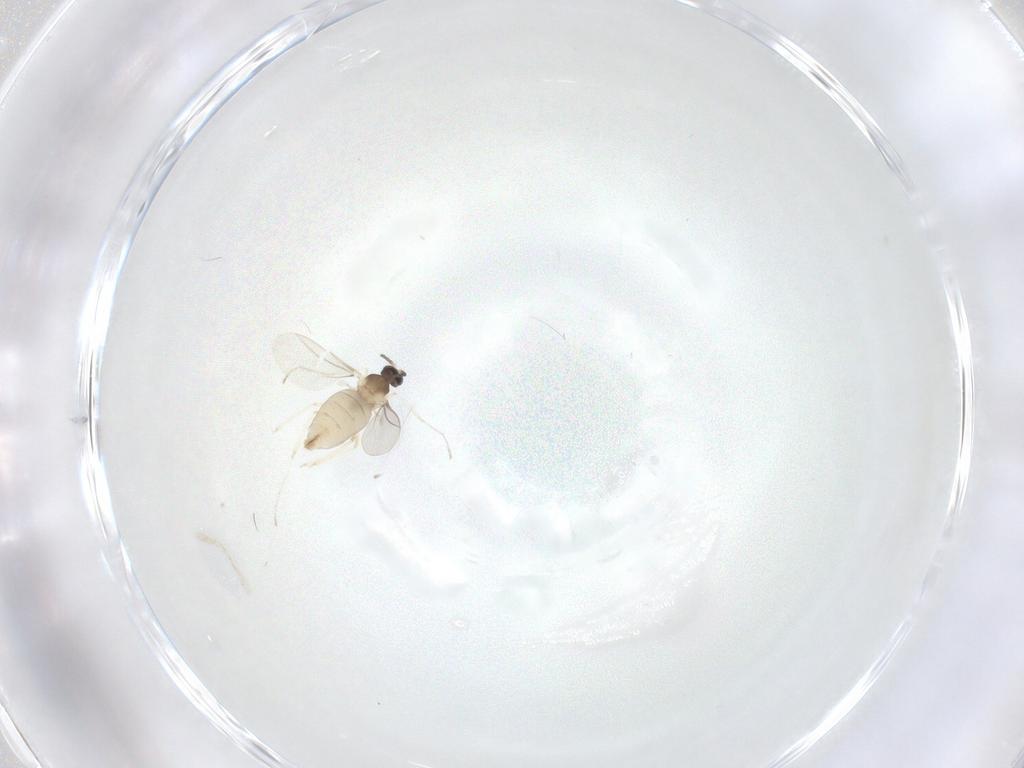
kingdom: Animalia
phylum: Arthropoda
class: Insecta
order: Diptera
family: Cecidomyiidae
